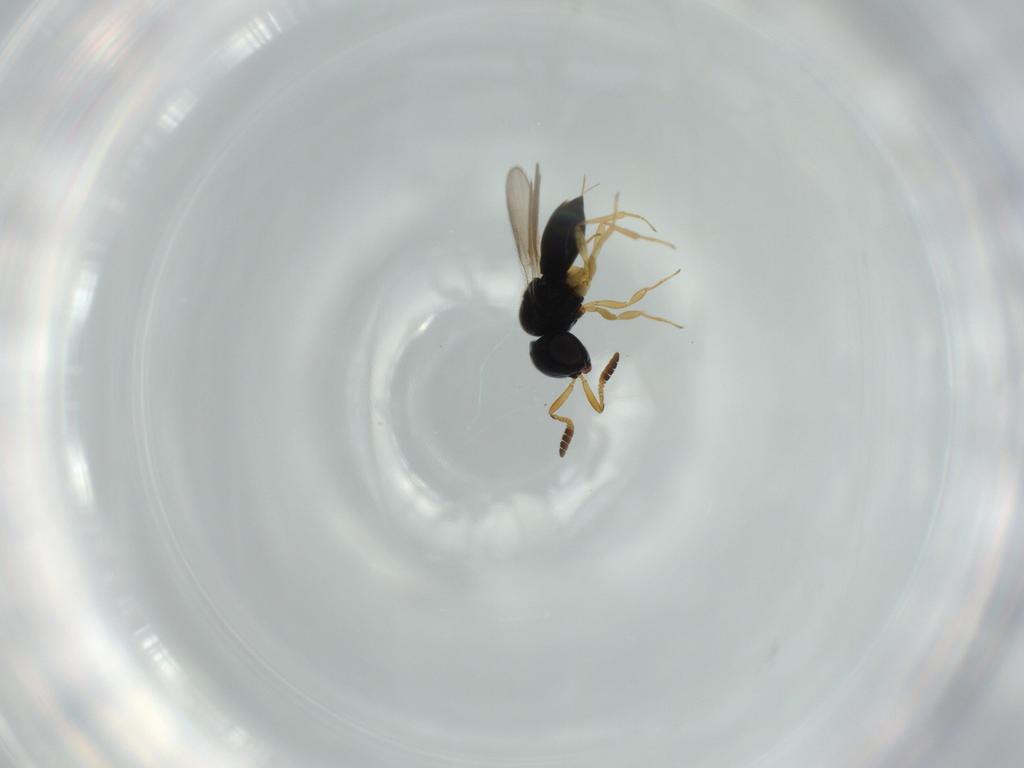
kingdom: Animalia
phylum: Arthropoda
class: Insecta
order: Hymenoptera
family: Scelionidae
